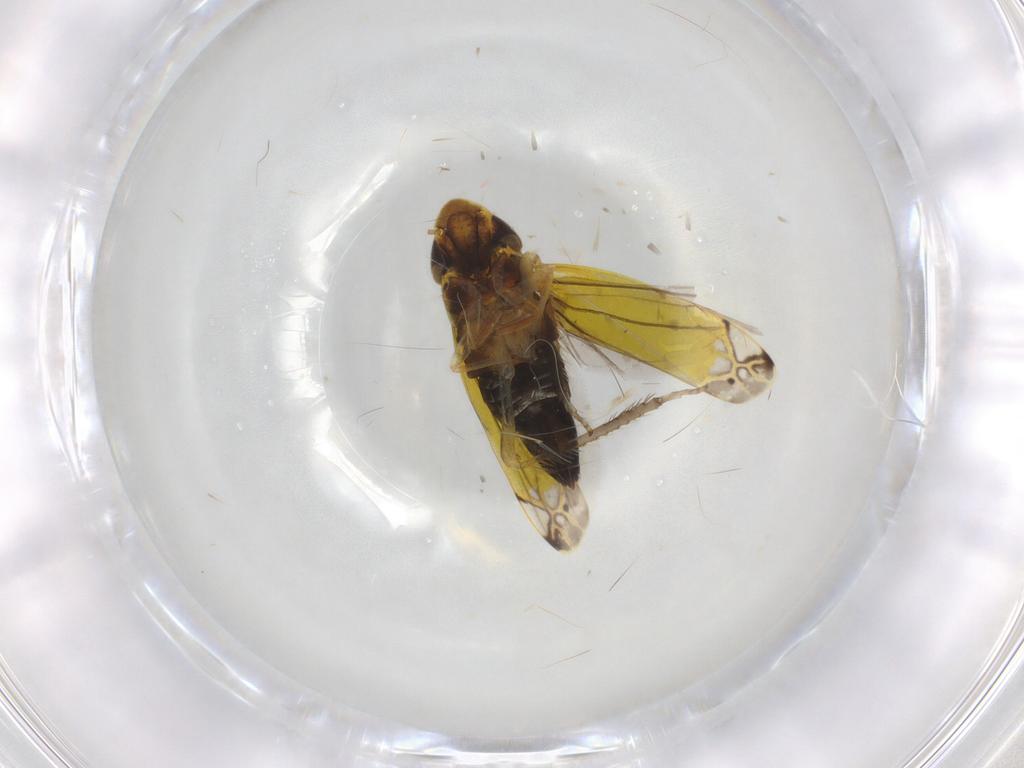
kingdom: Animalia
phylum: Arthropoda
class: Insecta
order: Hemiptera
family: Cicadellidae
